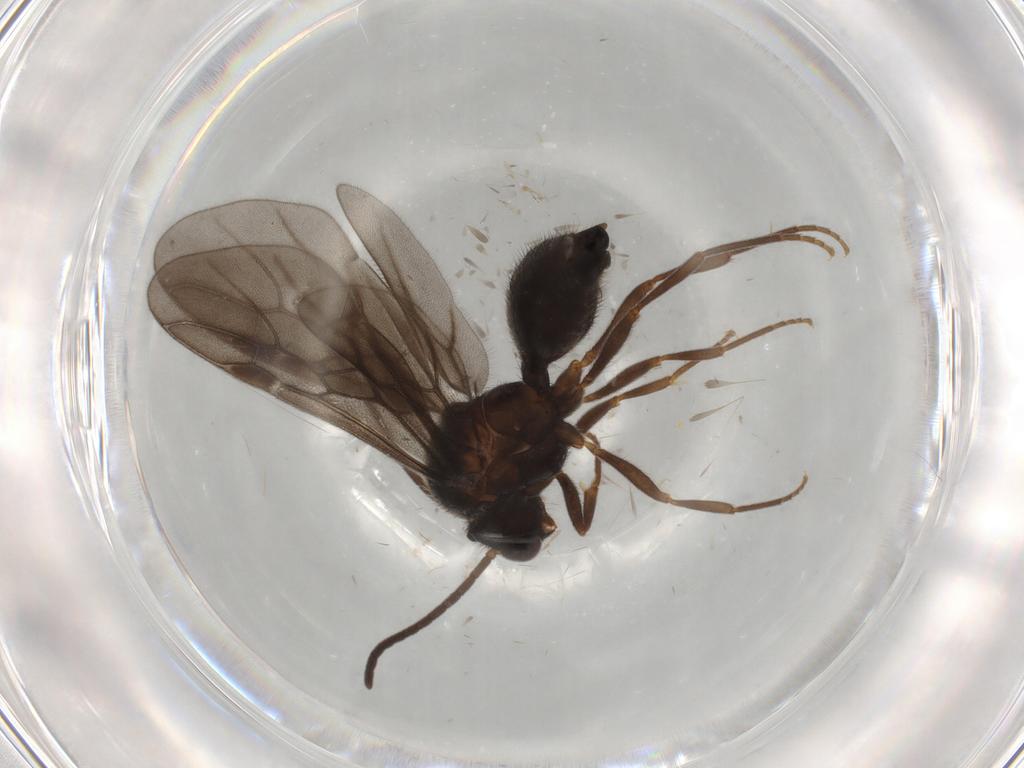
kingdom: Animalia
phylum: Arthropoda
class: Insecta
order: Hymenoptera
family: Formicidae
